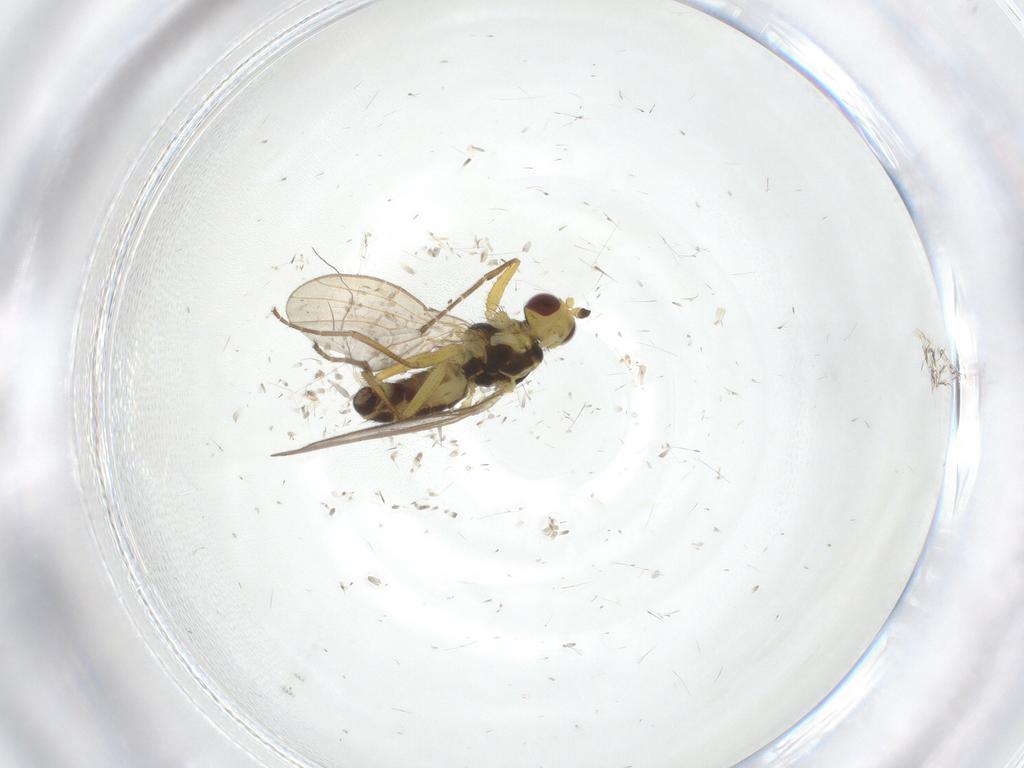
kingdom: Animalia
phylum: Arthropoda
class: Insecta
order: Diptera
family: Agromyzidae
